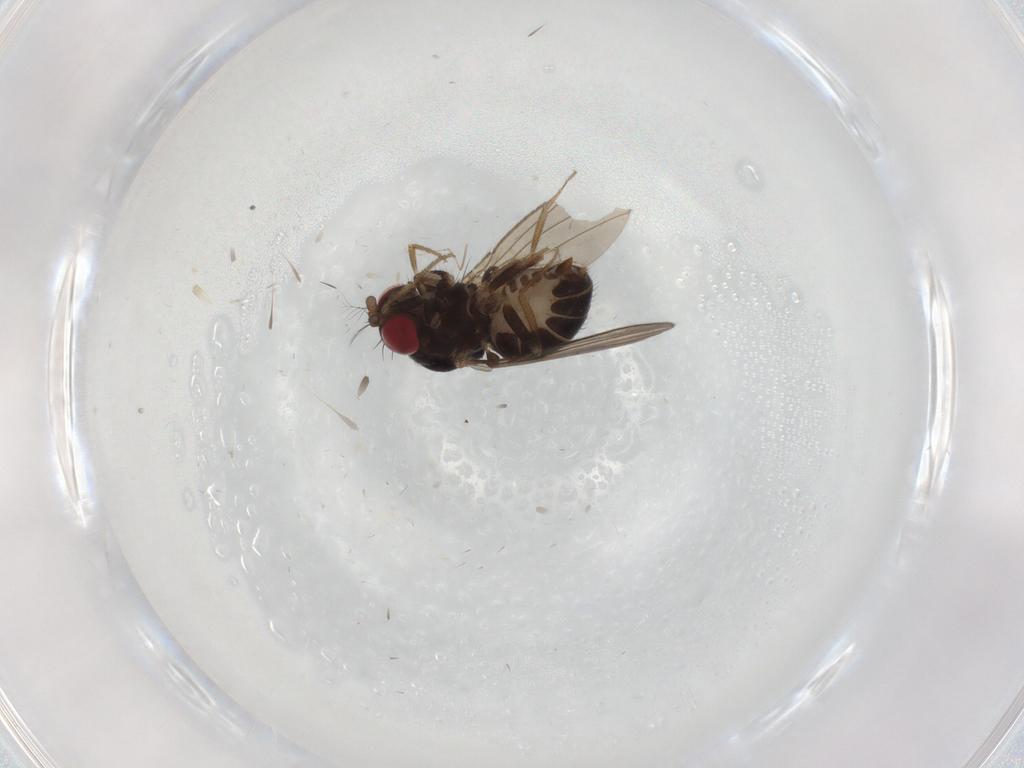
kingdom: Animalia
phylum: Arthropoda
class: Insecta
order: Diptera
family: Drosophilidae
